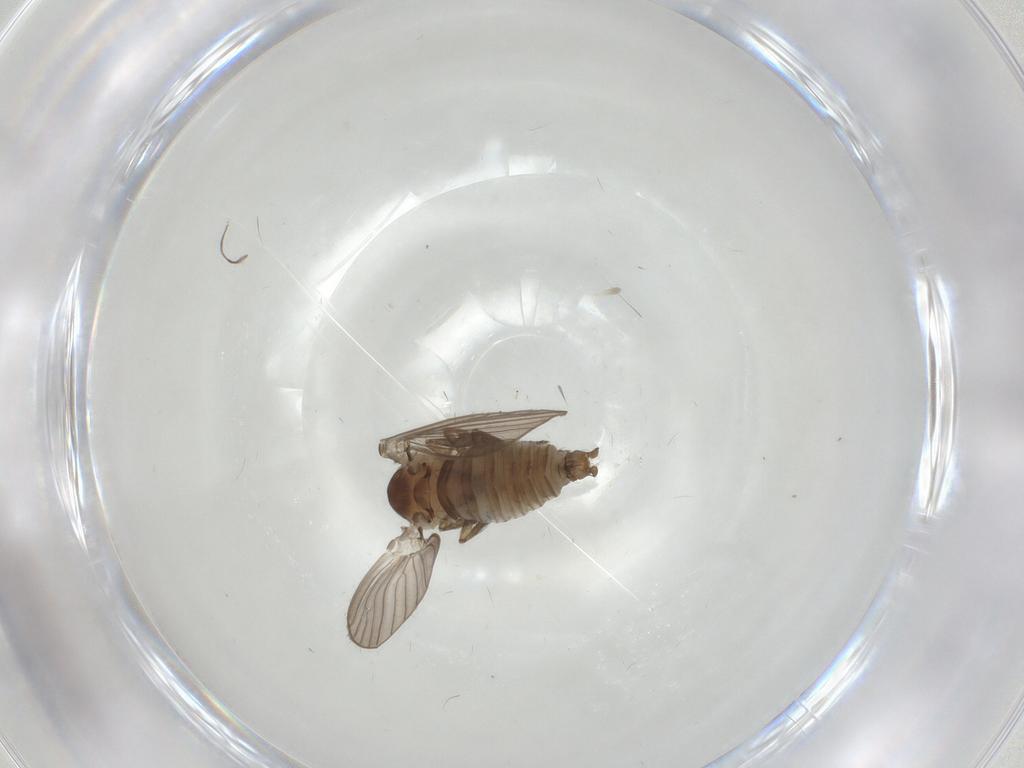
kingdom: Animalia
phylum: Arthropoda
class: Insecta
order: Diptera
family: Psychodidae
